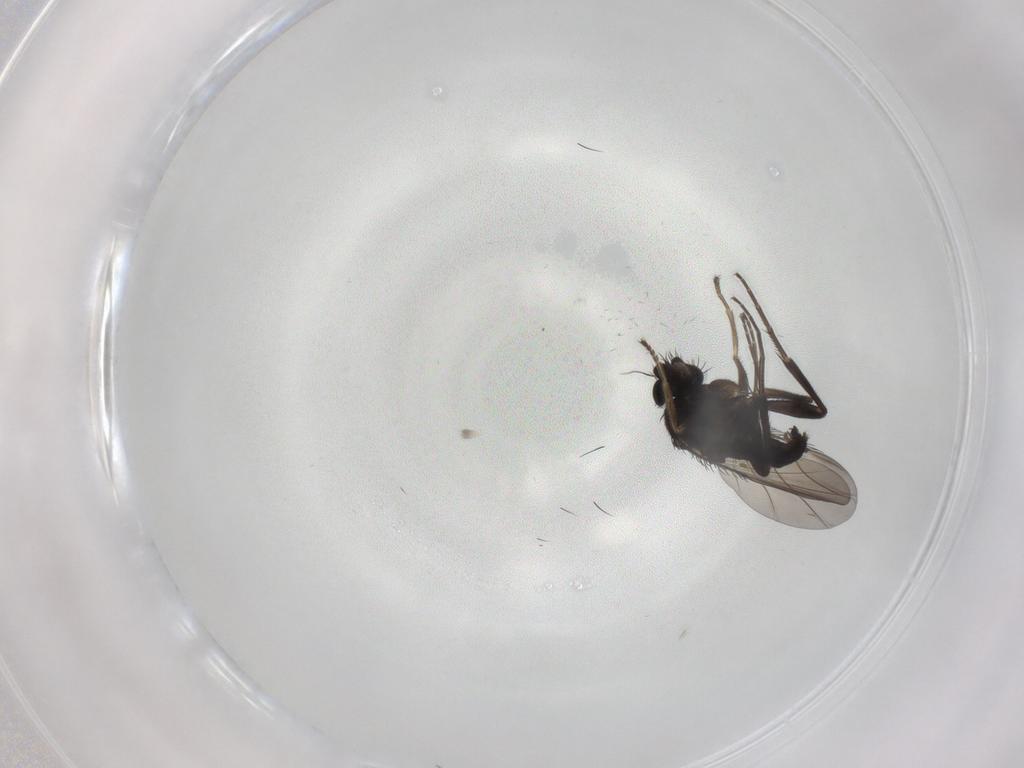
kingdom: Animalia
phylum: Arthropoda
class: Insecta
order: Diptera
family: Phoridae
